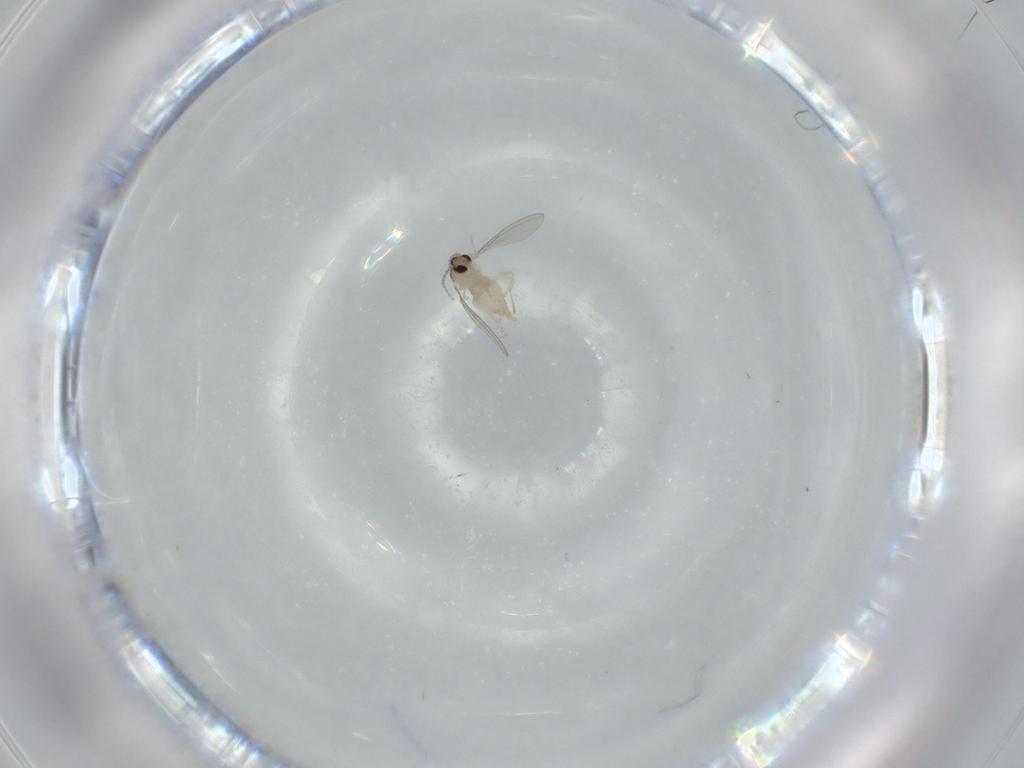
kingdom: Animalia
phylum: Arthropoda
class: Insecta
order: Diptera
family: Cecidomyiidae
